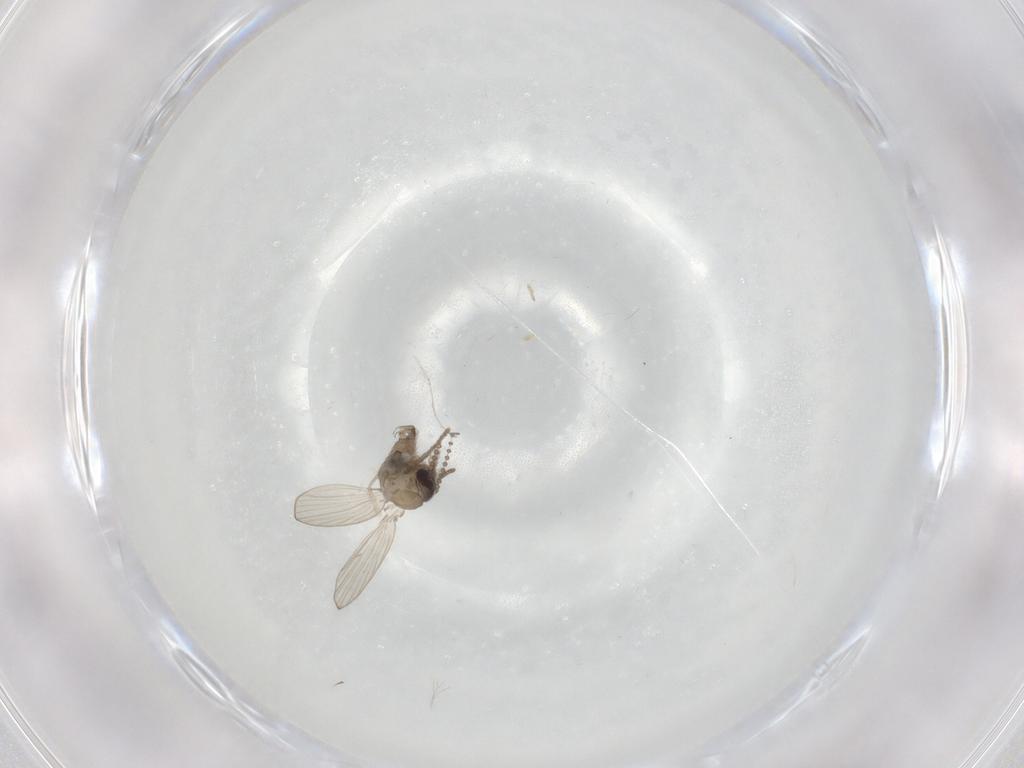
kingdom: Animalia
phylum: Arthropoda
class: Insecta
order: Diptera
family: Psychodidae
